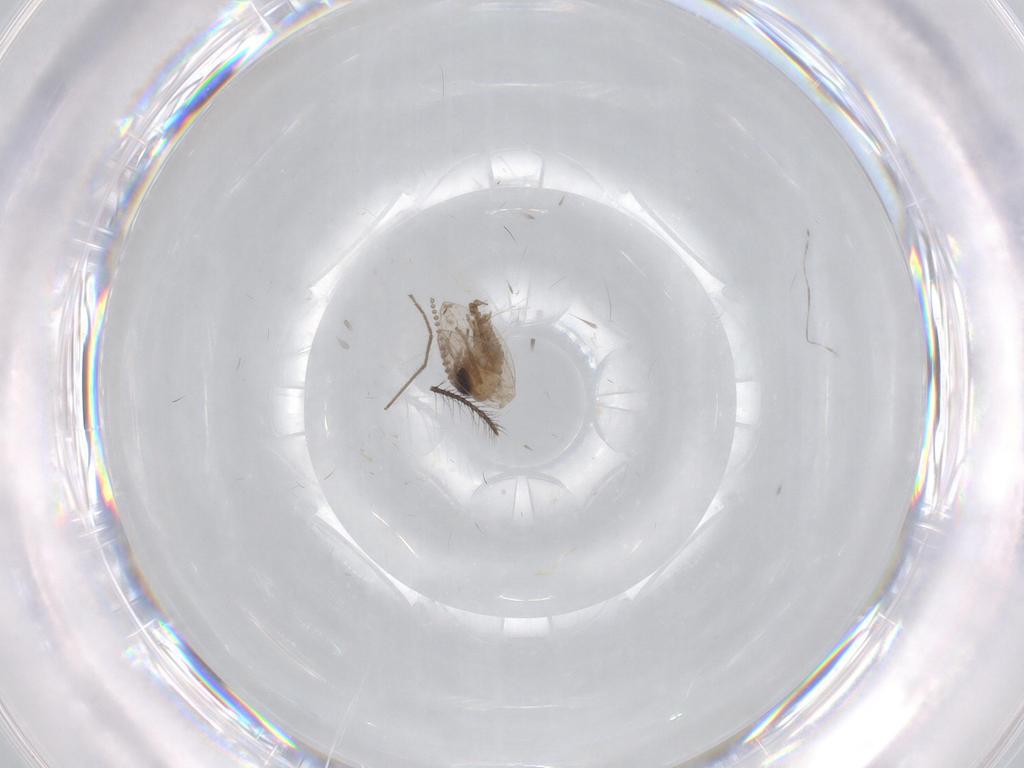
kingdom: Animalia
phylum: Arthropoda
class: Insecta
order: Diptera
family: Chironomidae
